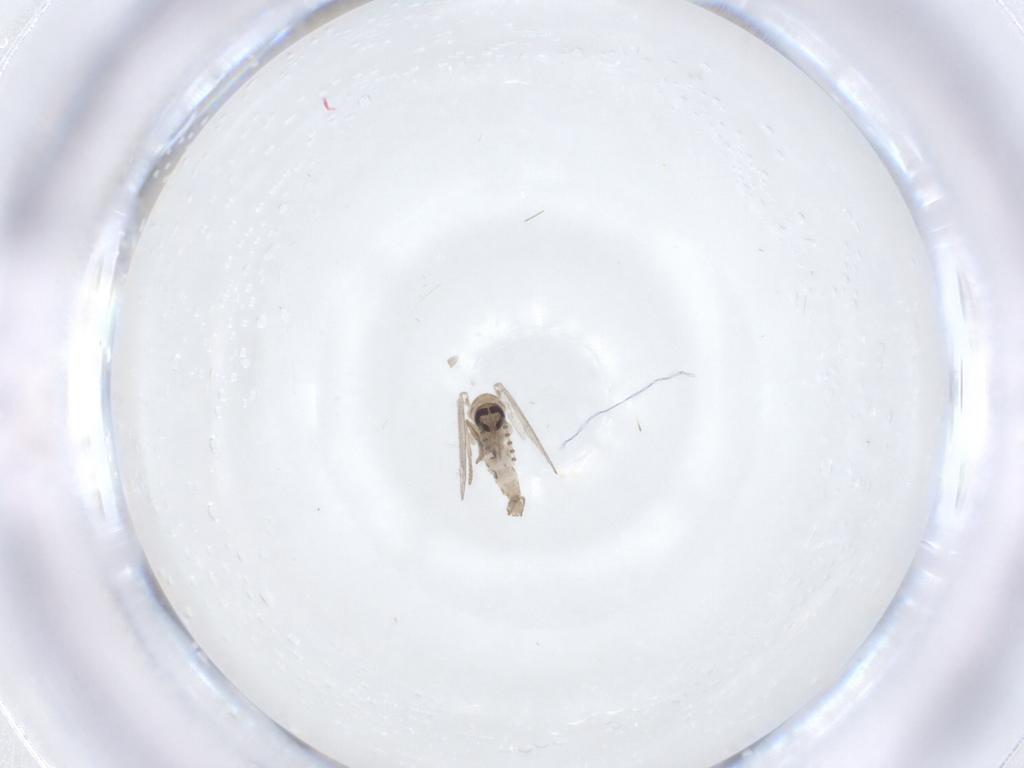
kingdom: Animalia
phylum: Arthropoda
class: Insecta
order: Diptera
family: Psychodidae
